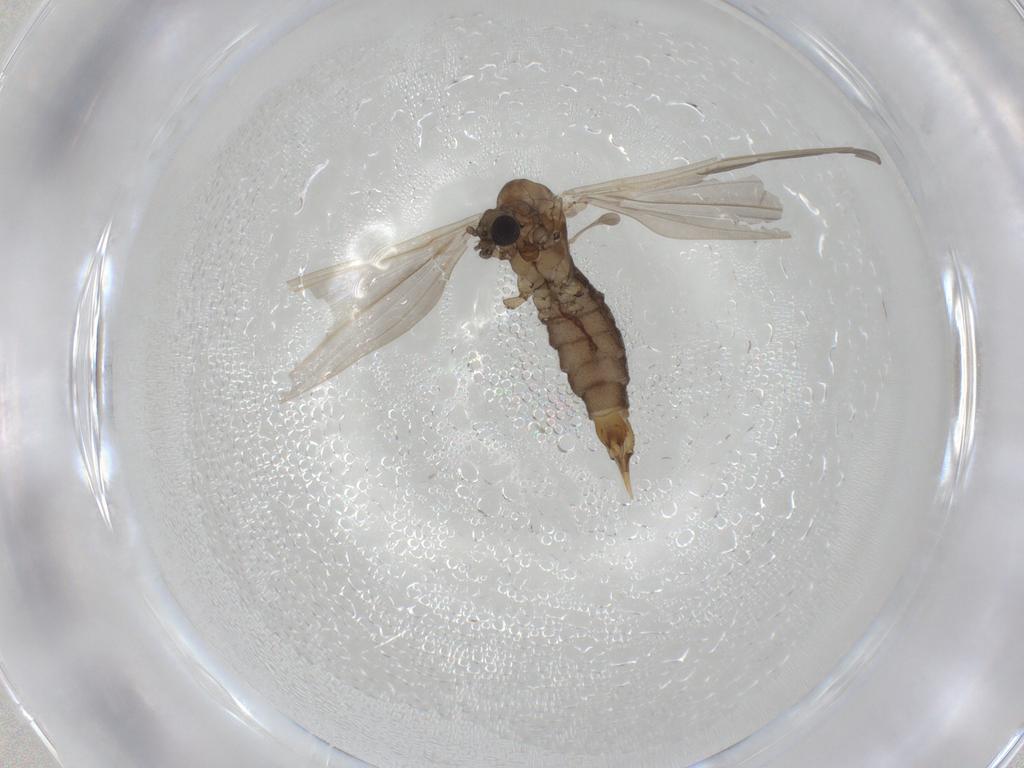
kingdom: Animalia
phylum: Arthropoda
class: Insecta
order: Diptera
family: Limoniidae
